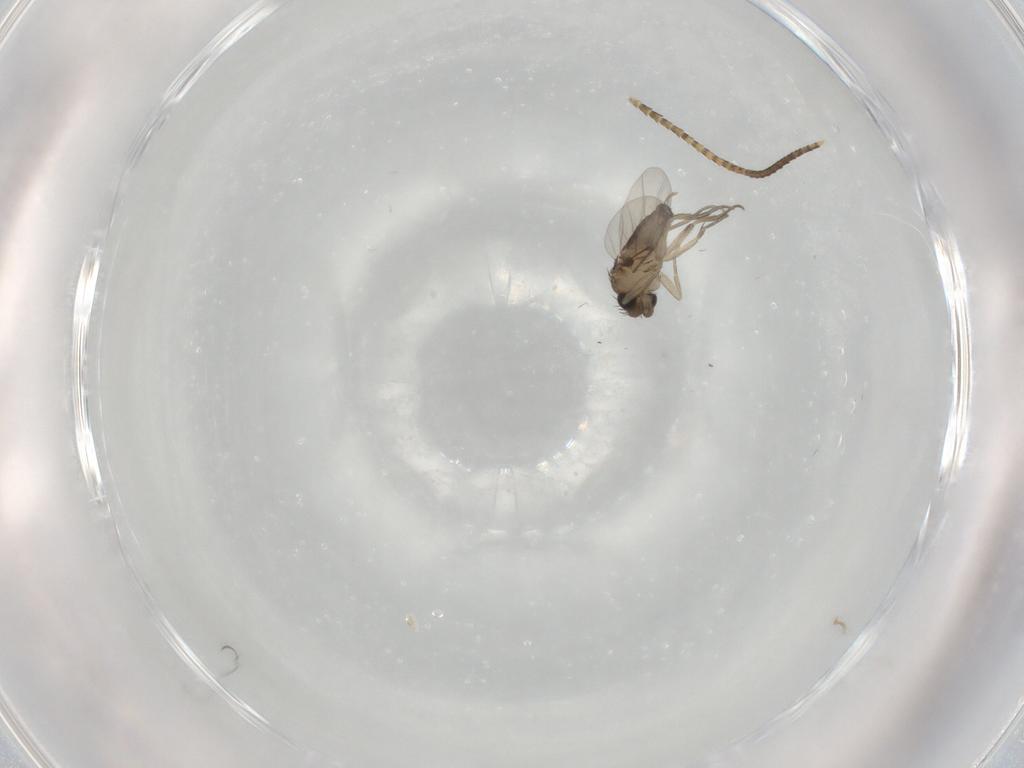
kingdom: Animalia
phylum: Arthropoda
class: Insecta
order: Diptera
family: Phoridae
